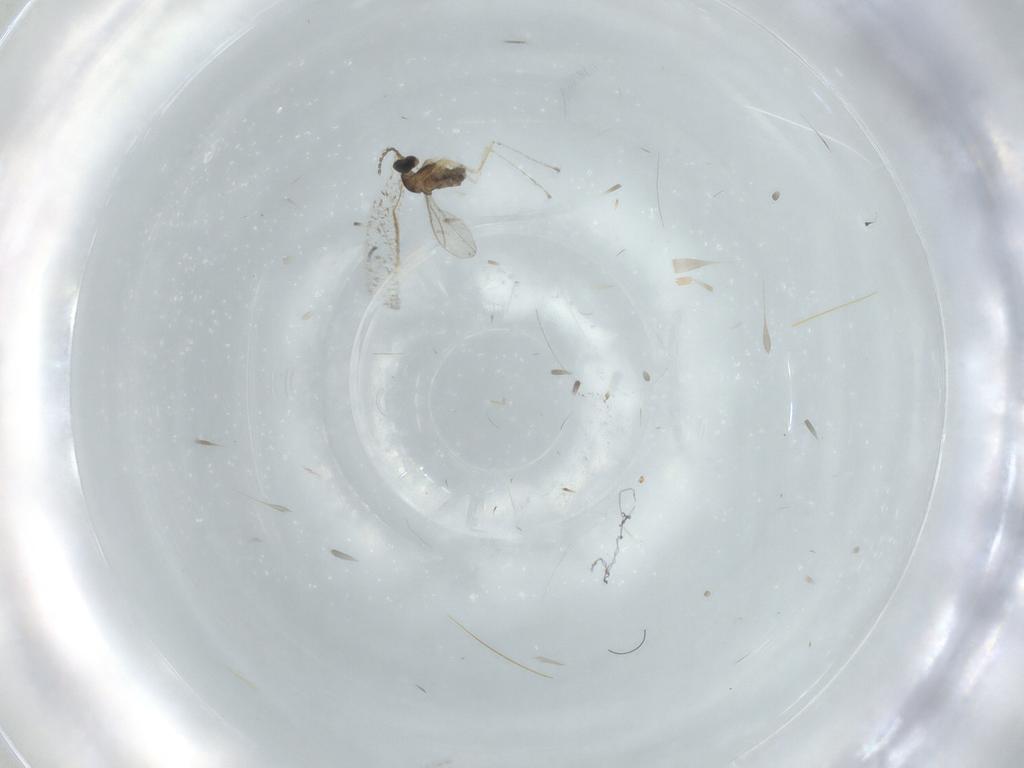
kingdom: Animalia
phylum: Arthropoda
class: Insecta
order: Diptera
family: Cecidomyiidae
